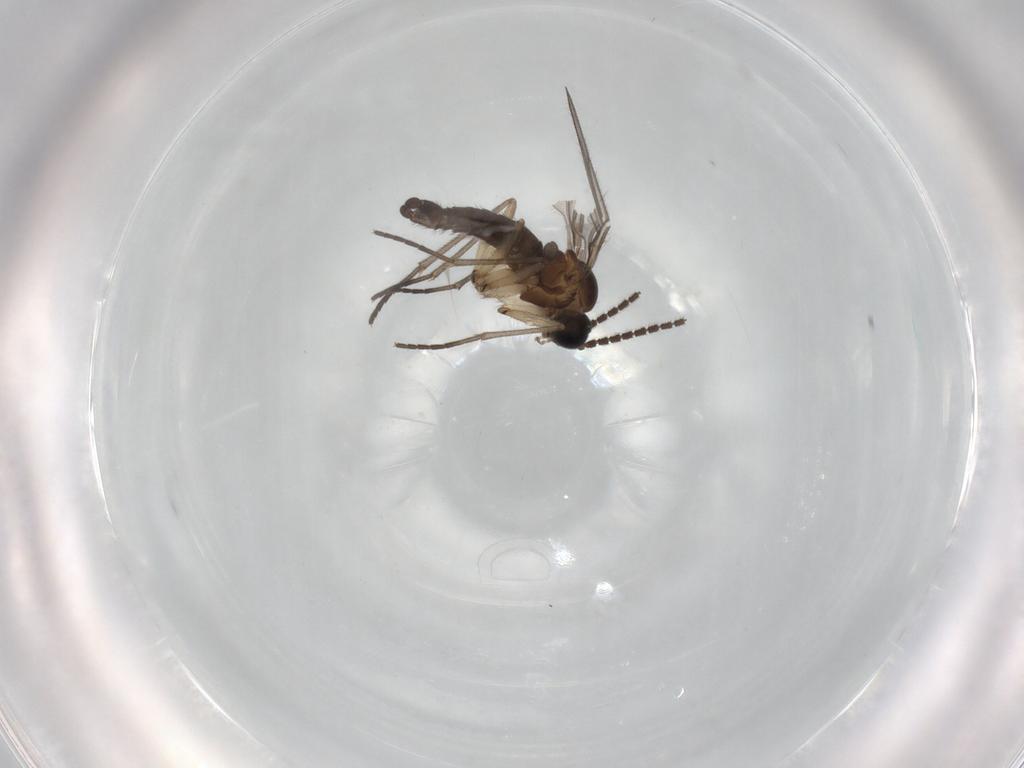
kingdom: Animalia
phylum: Arthropoda
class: Insecta
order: Diptera
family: Sciaridae
